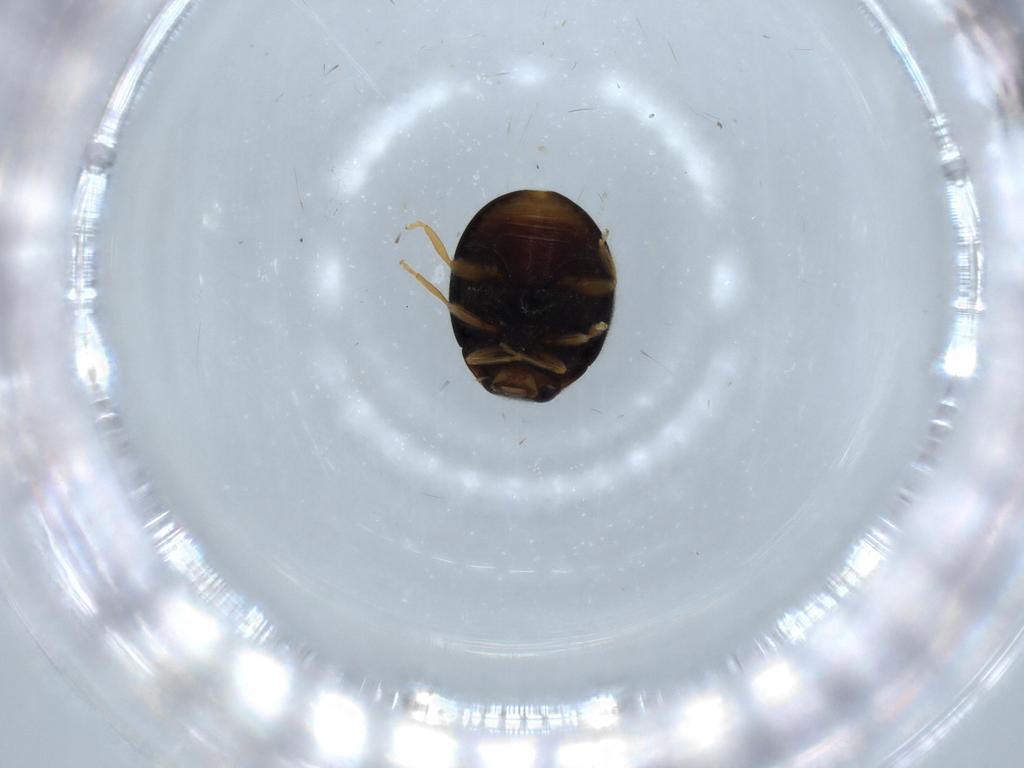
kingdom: Animalia
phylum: Arthropoda
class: Insecta
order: Coleoptera
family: Coccinellidae
